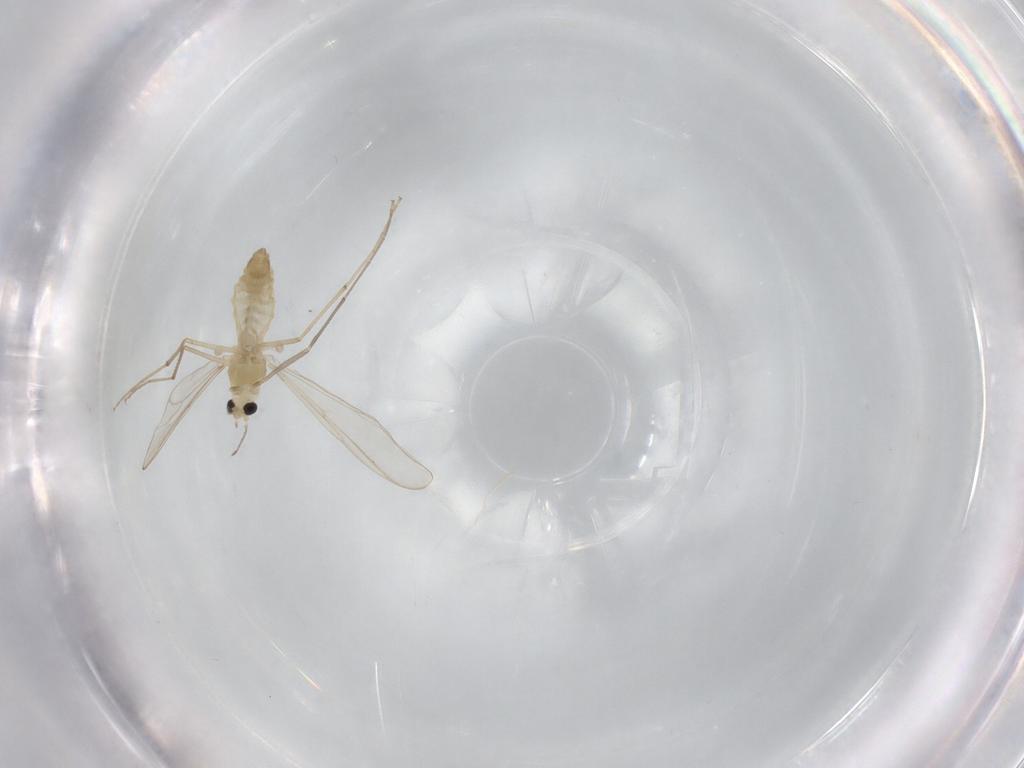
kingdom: Animalia
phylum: Arthropoda
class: Insecta
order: Diptera
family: Chironomidae
